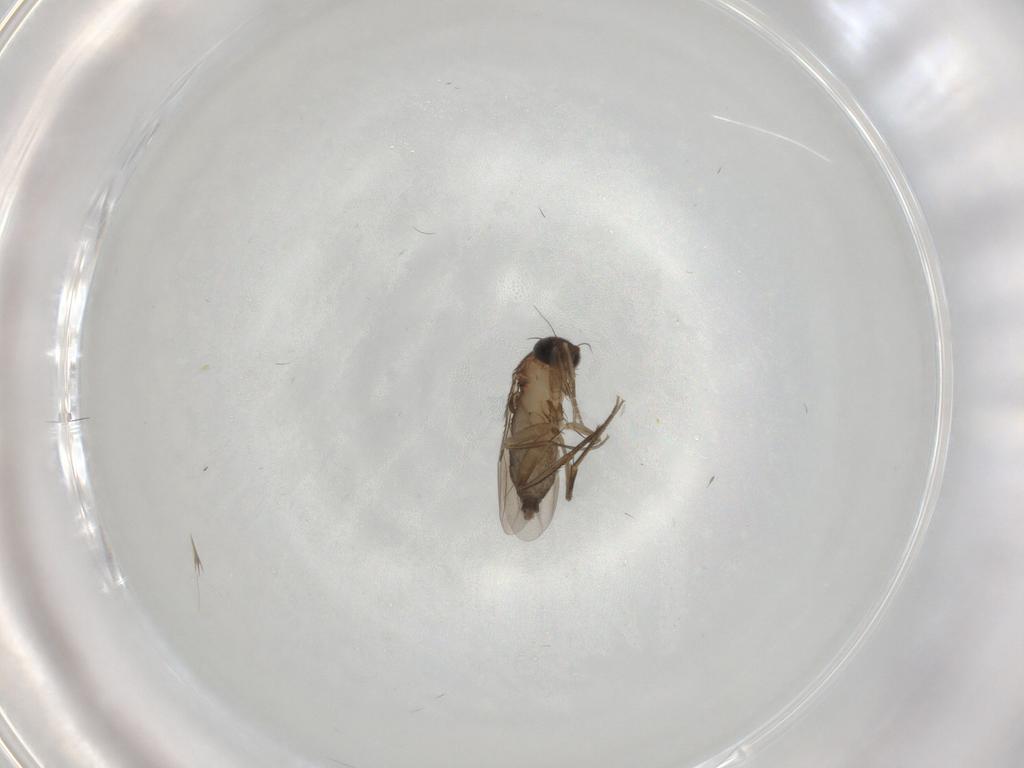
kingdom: Animalia
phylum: Arthropoda
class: Insecta
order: Diptera
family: Phoridae
